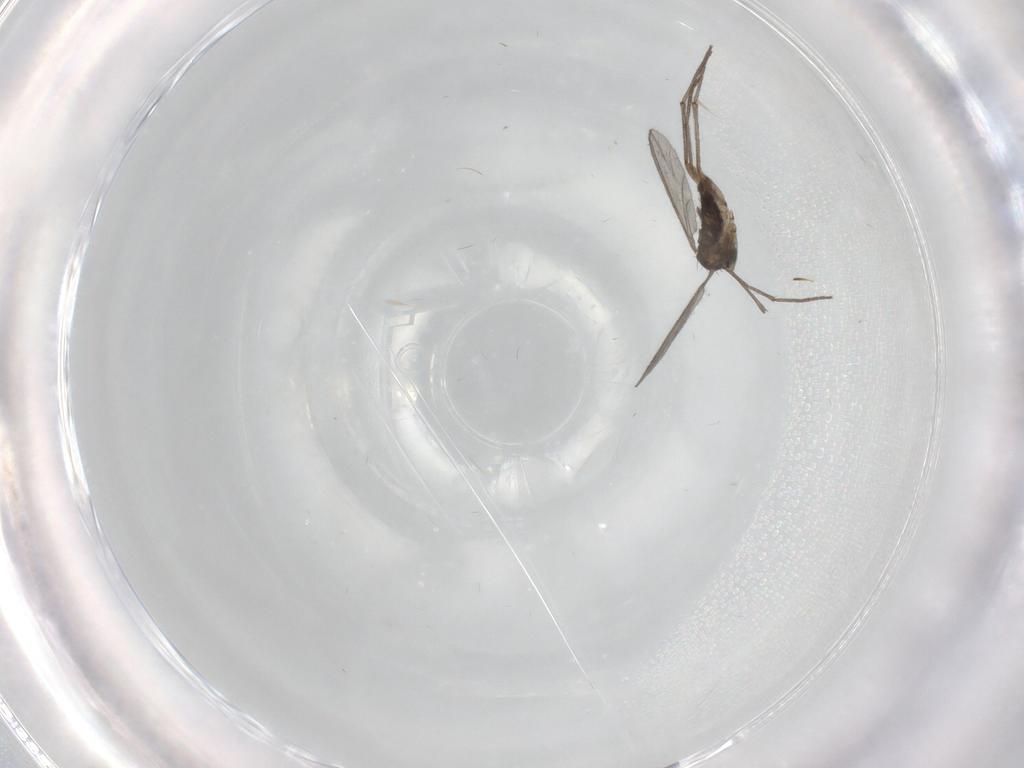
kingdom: Animalia
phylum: Arthropoda
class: Insecta
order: Diptera
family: Sciaridae
